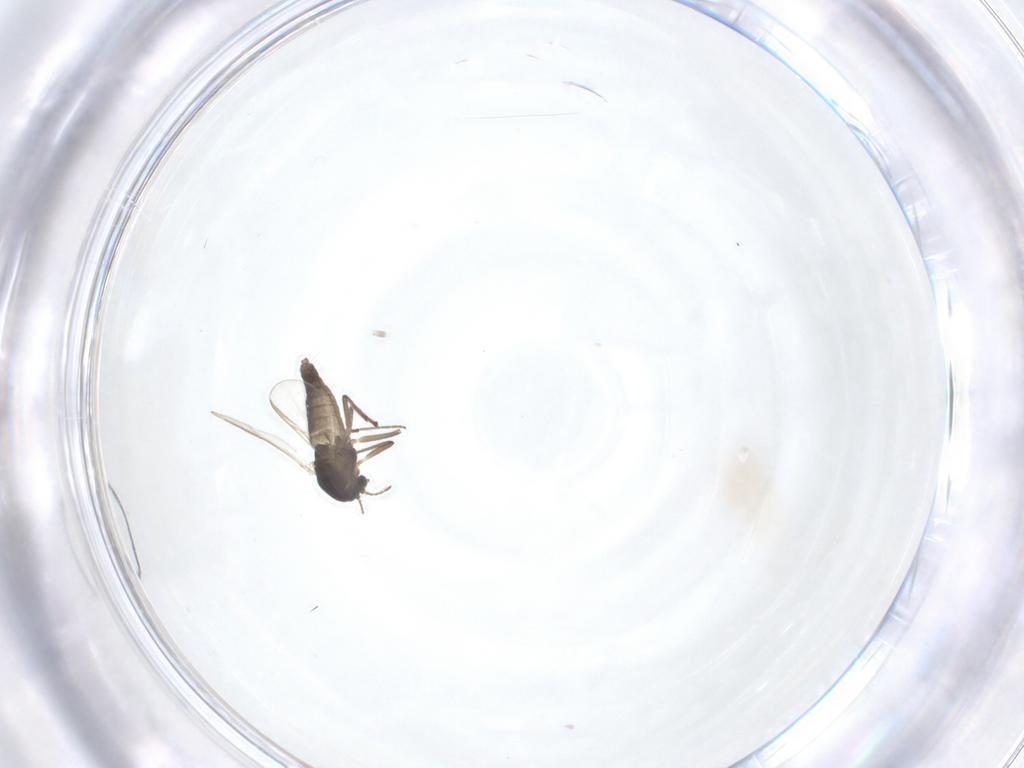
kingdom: Animalia
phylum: Arthropoda
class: Insecta
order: Diptera
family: Chironomidae
